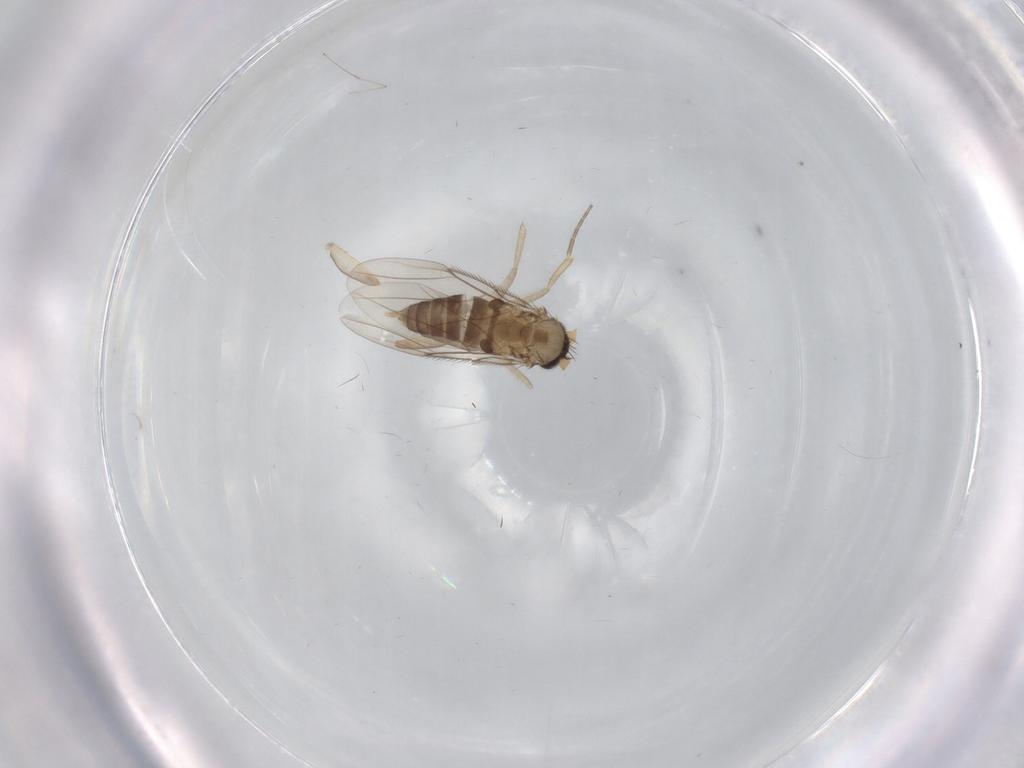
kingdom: Animalia
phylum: Arthropoda
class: Insecta
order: Diptera
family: Phoridae
